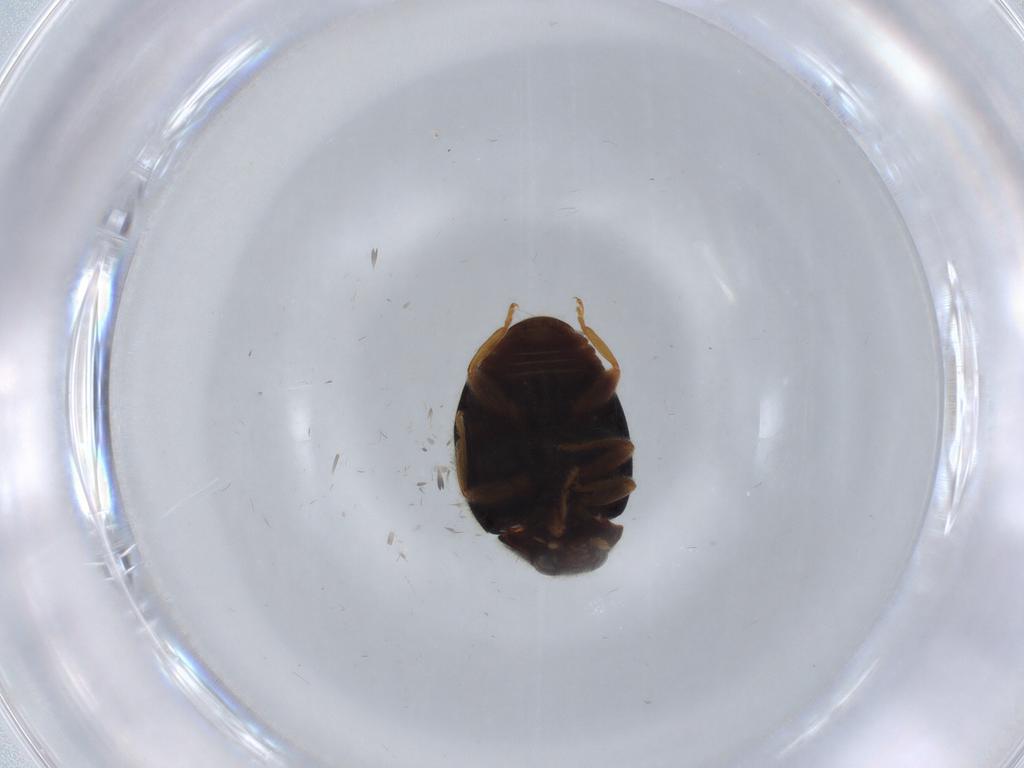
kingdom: Animalia
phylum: Arthropoda
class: Insecta
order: Coleoptera
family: Coccinellidae
